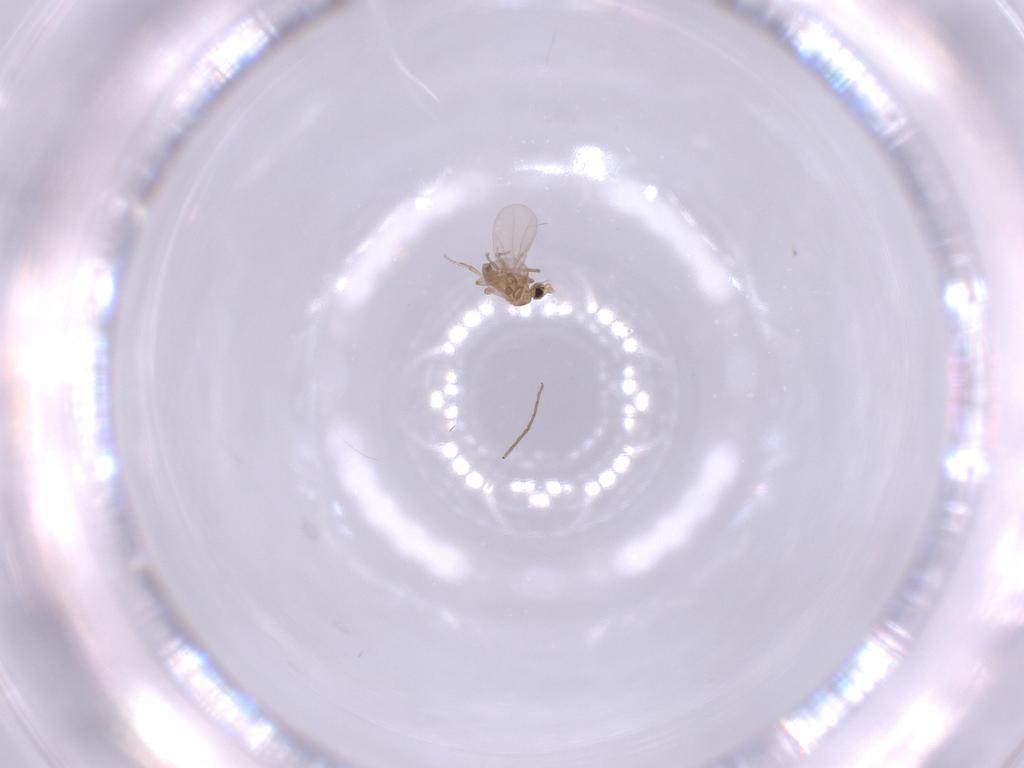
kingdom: Animalia
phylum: Arthropoda
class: Insecta
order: Diptera
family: Chironomidae
